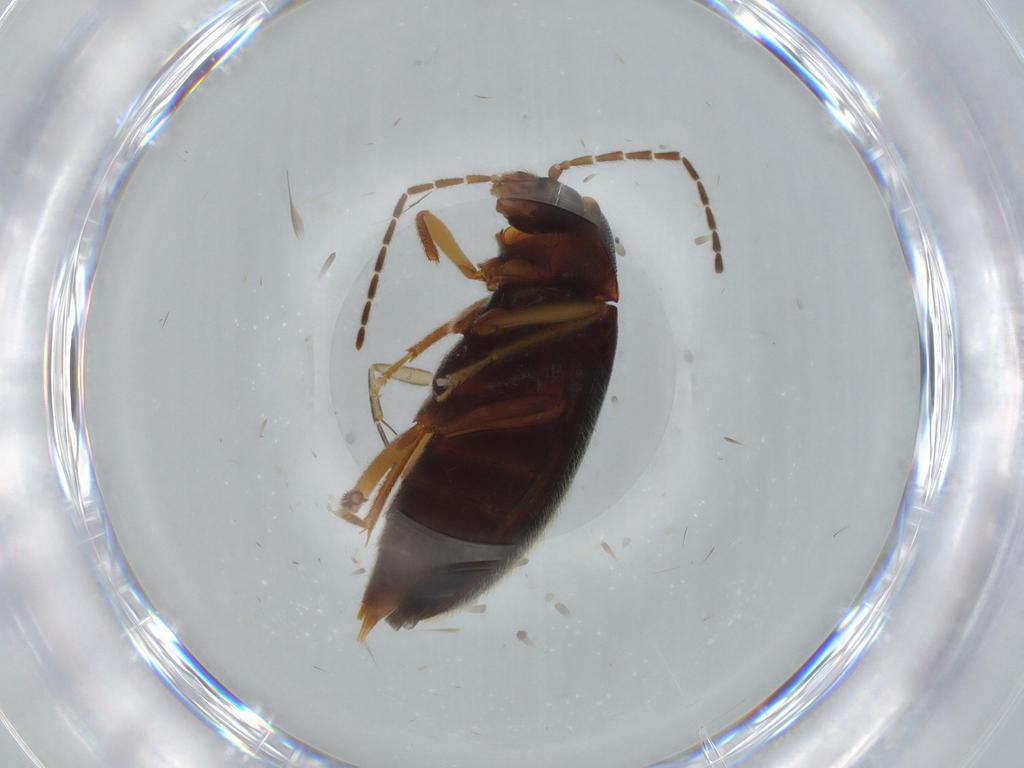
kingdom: Animalia
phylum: Arthropoda
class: Insecta
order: Coleoptera
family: Ptilodactylidae
